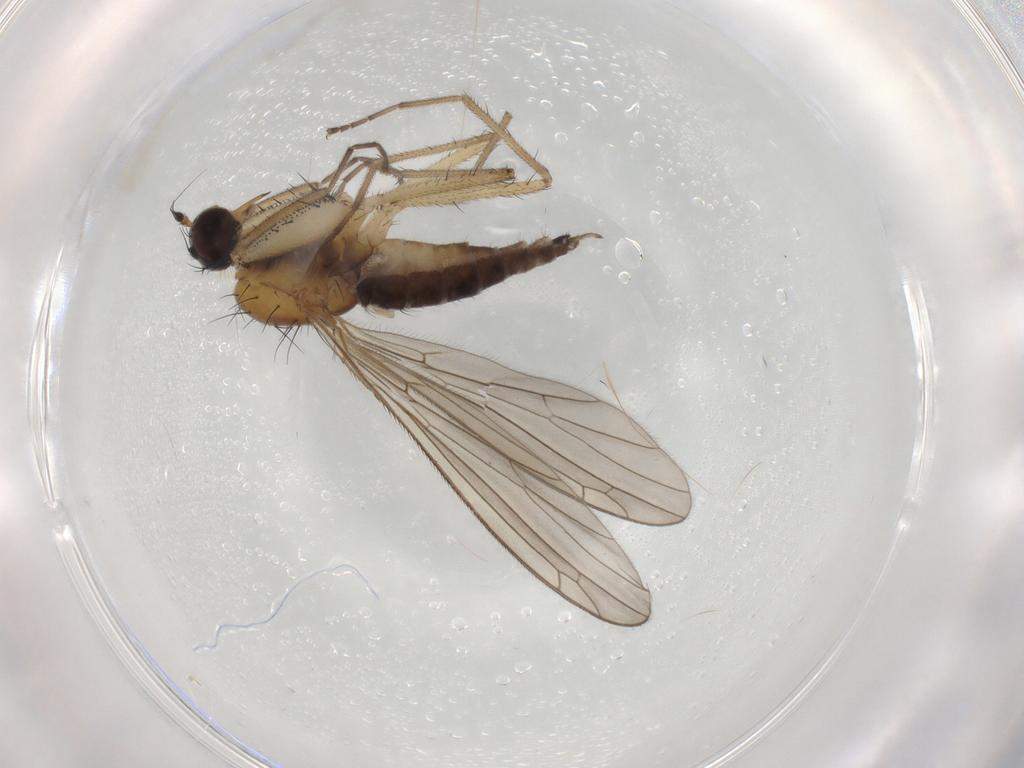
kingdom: Animalia
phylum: Arthropoda
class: Insecta
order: Diptera
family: Empididae
